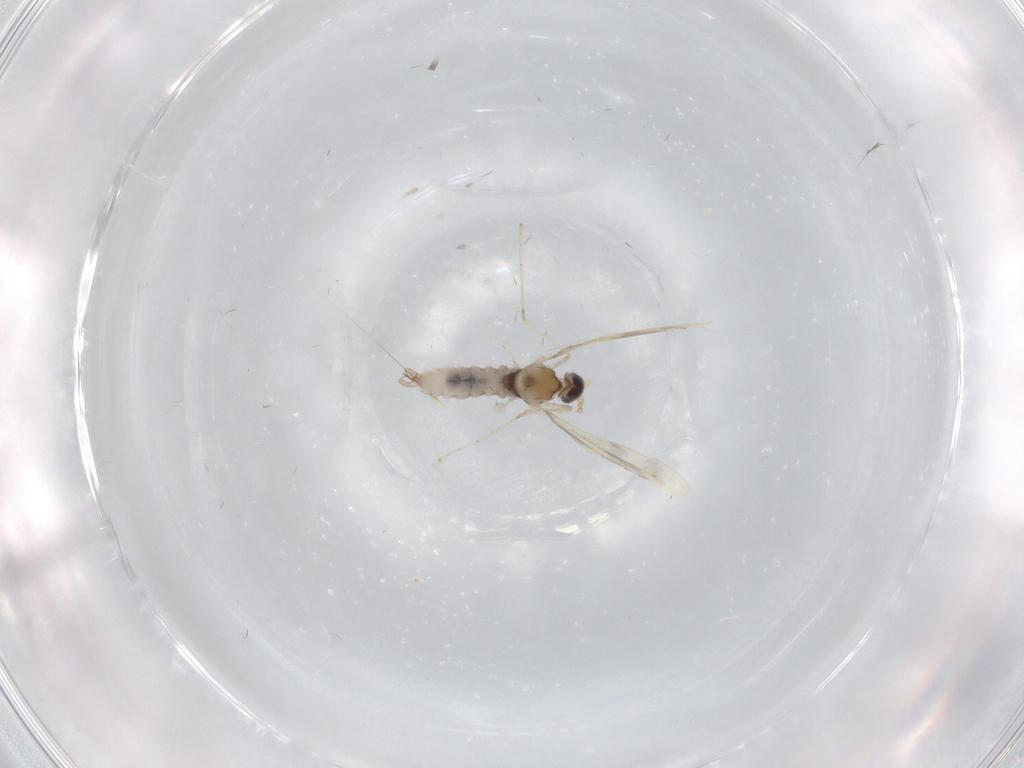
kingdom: Animalia
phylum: Arthropoda
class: Insecta
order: Diptera
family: Cecidomyiidae
